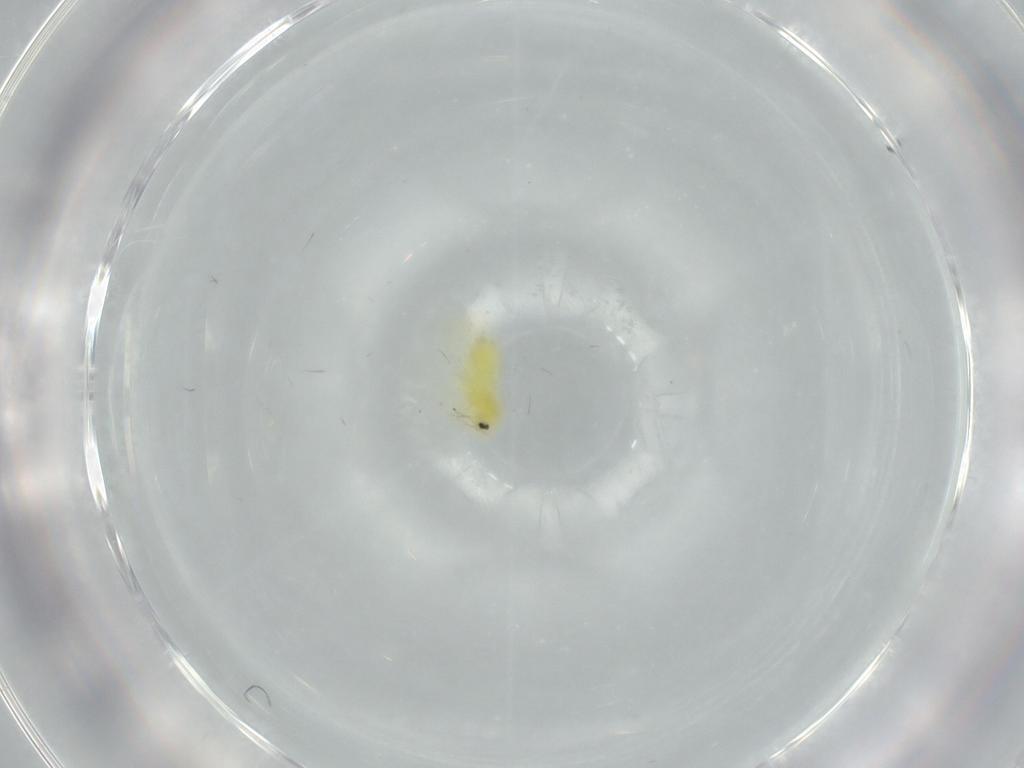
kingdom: Animalia
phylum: Arthropoda
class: Insecta
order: Hemiptera
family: Aleyrodidae
